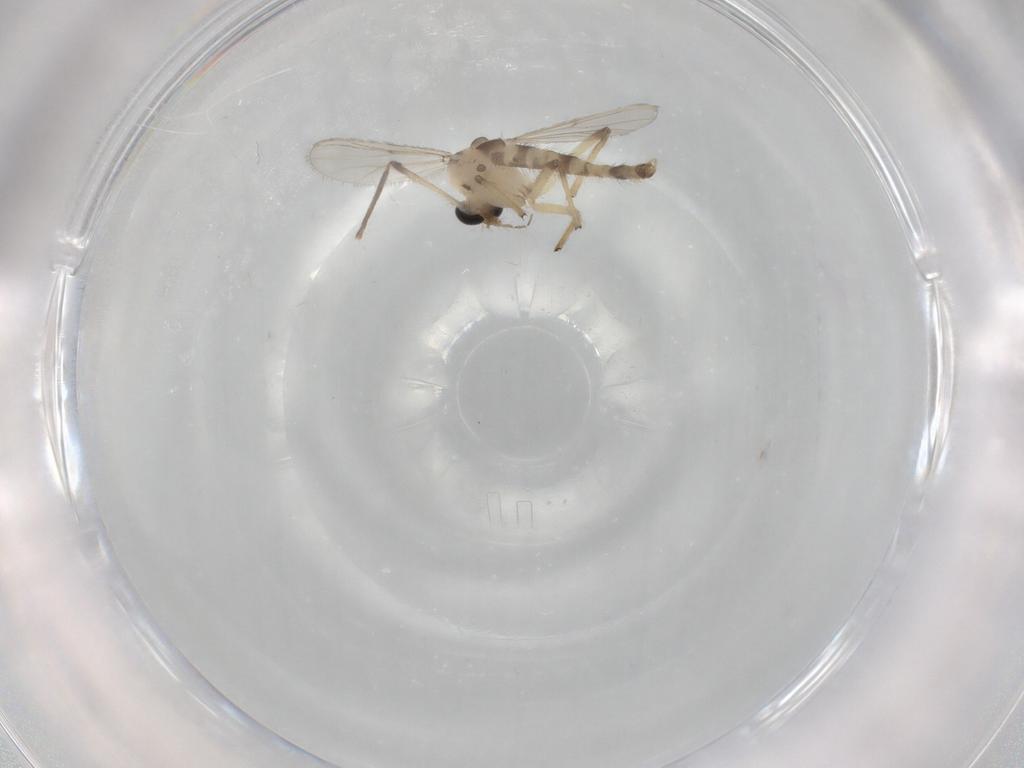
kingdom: Animalia
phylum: Arthropoda
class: Insecta
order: Diptera
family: Chironomidae
